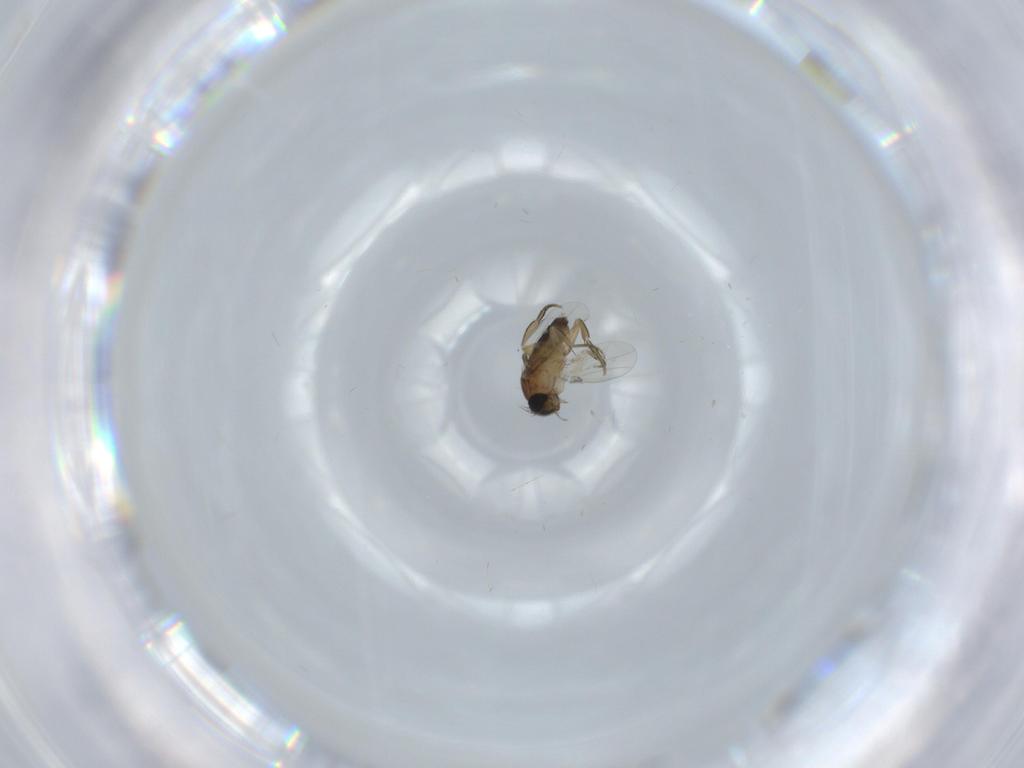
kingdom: Animalia
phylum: Arthropoda
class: Insecta
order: Diptera
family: Phoridae
